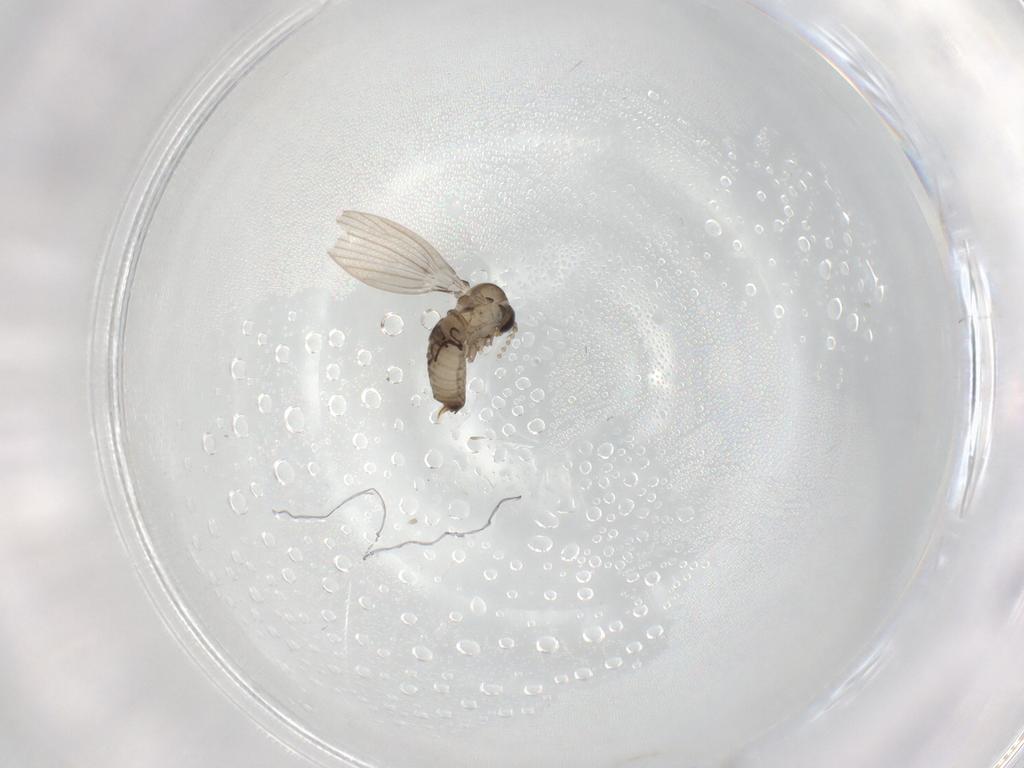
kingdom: Animalia
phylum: Arthropoda
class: Insecta
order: Diptera
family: Psychodidae
